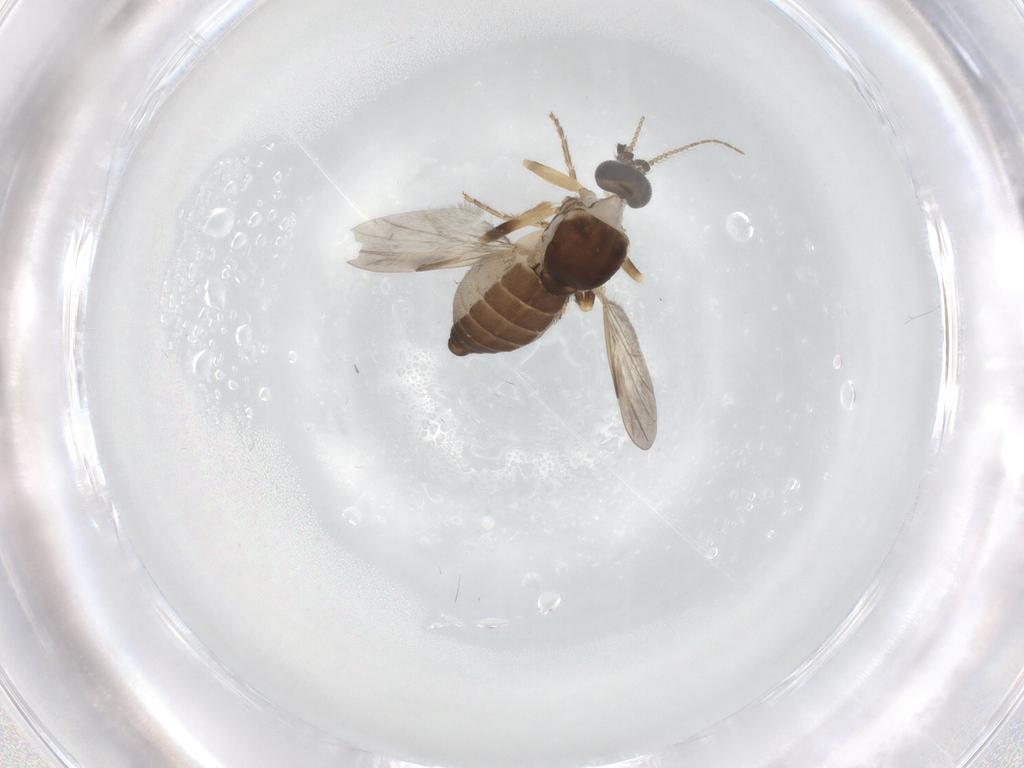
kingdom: Animalia
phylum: Arthropoda
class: Insecta
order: Diptera
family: Ceratopogonidae
